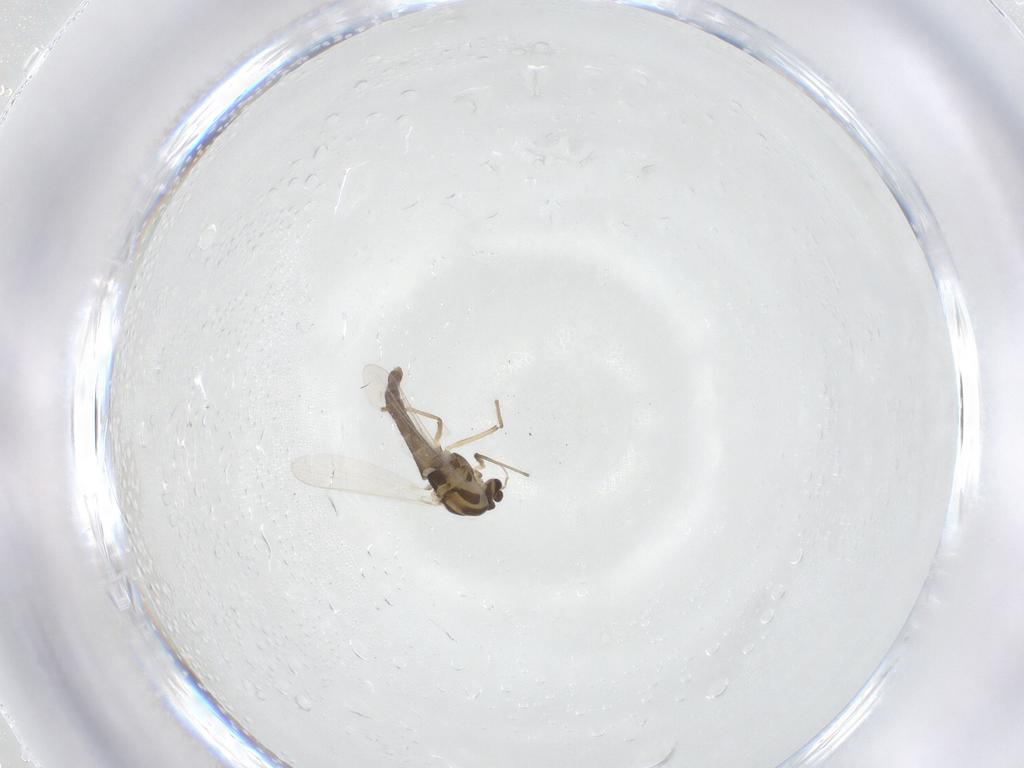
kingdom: Animalia
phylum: Arthropoda
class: Insecta
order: Diptera
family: Chironomidae
